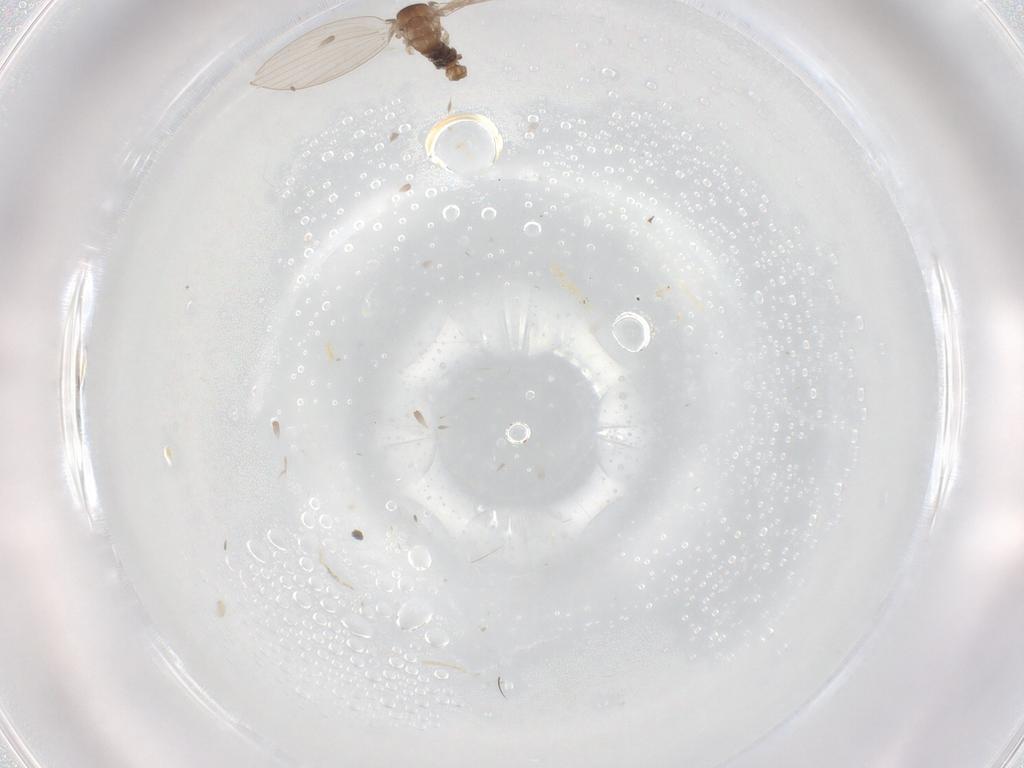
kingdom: Animalia
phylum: Arthropoda
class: Insecta
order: Diptera
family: Psychodidae
